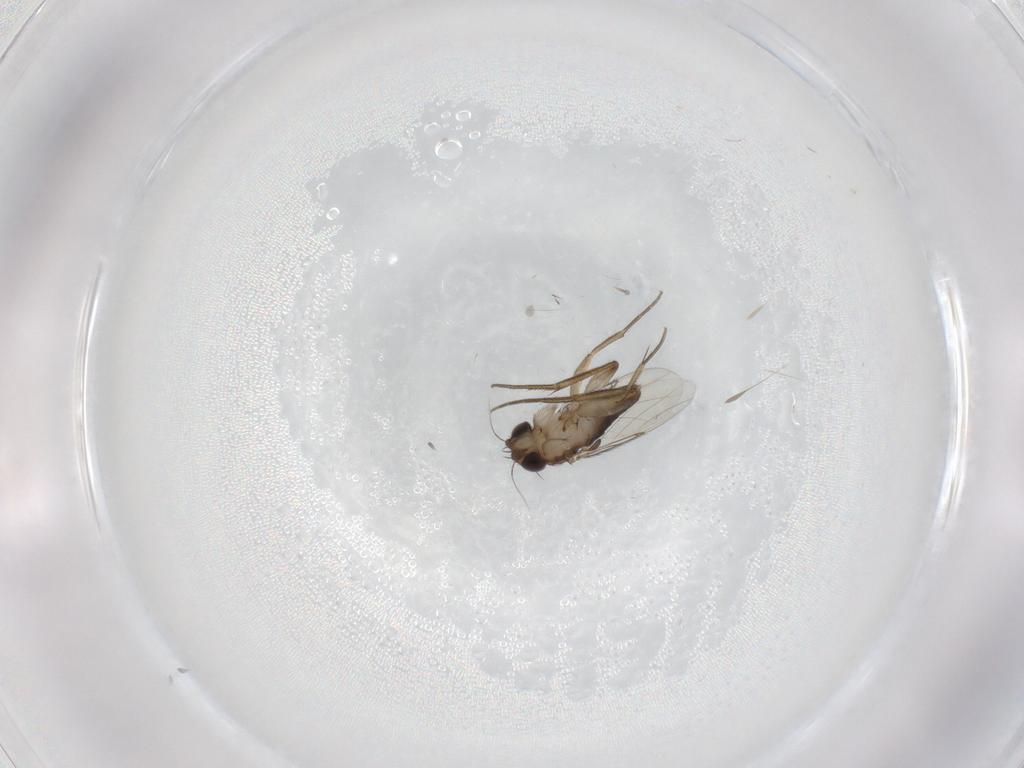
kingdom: Animalia
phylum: Arthropoda
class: Insecta
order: Diptera
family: Phoridae
